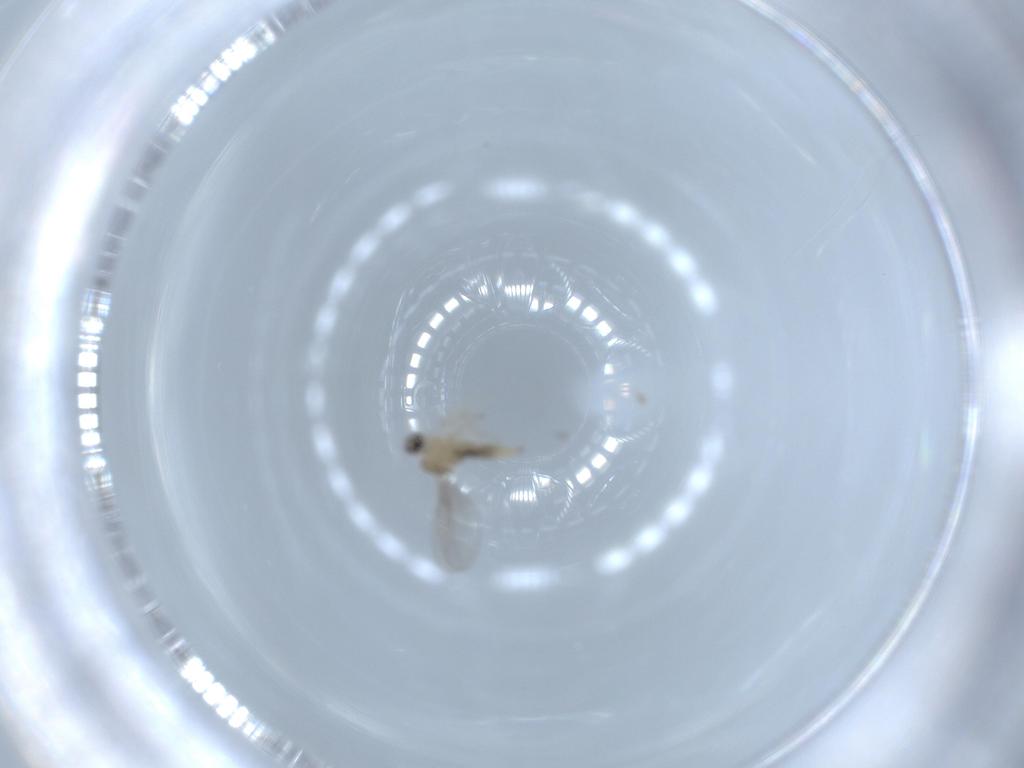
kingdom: Animalia
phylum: Arthropoda
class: Insecta
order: Diptera
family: Cecidomyiidae
